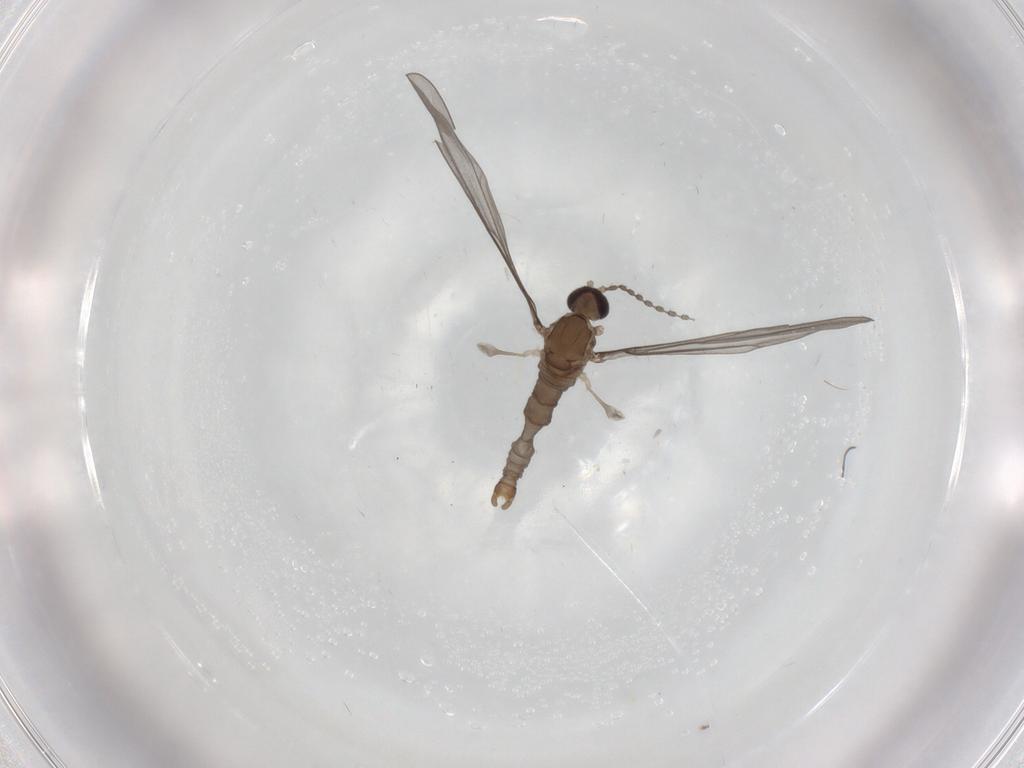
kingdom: Animalia
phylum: Arthropoda
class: Insecta
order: Diptera
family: Cecidomyiidae
